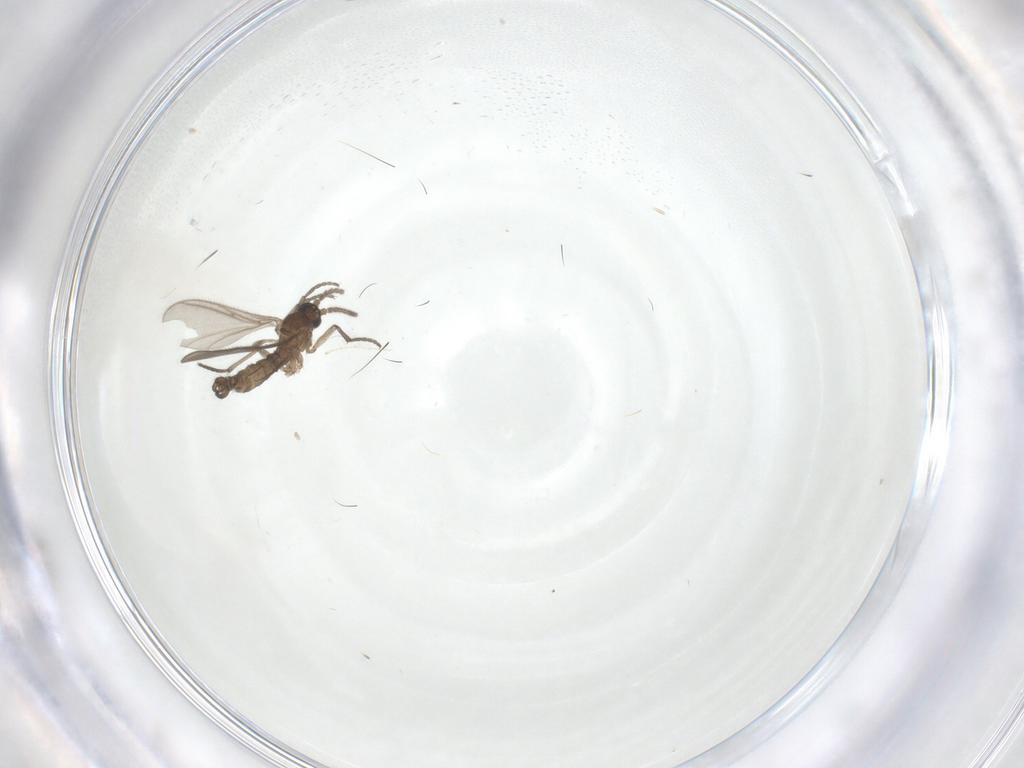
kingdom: Animalia
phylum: Arthropoda
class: Insecta
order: Diptera
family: Sciaridae
